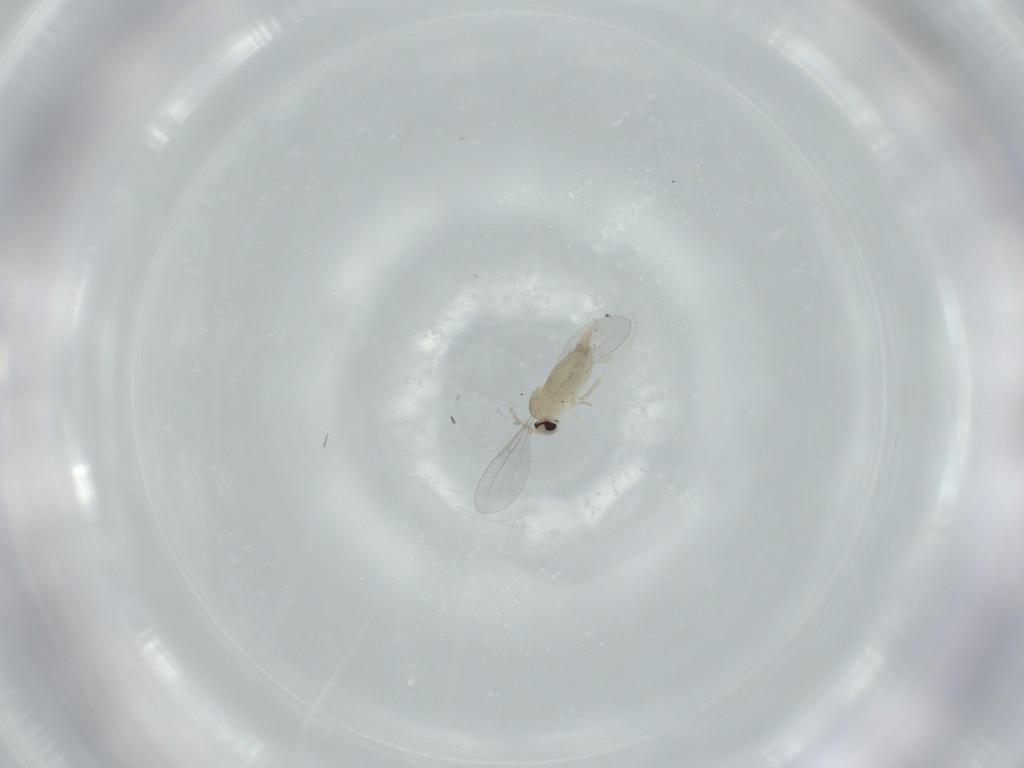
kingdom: Animalia
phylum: Arthropoda
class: Insecta
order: Diptera
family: Cecidomyiidae
